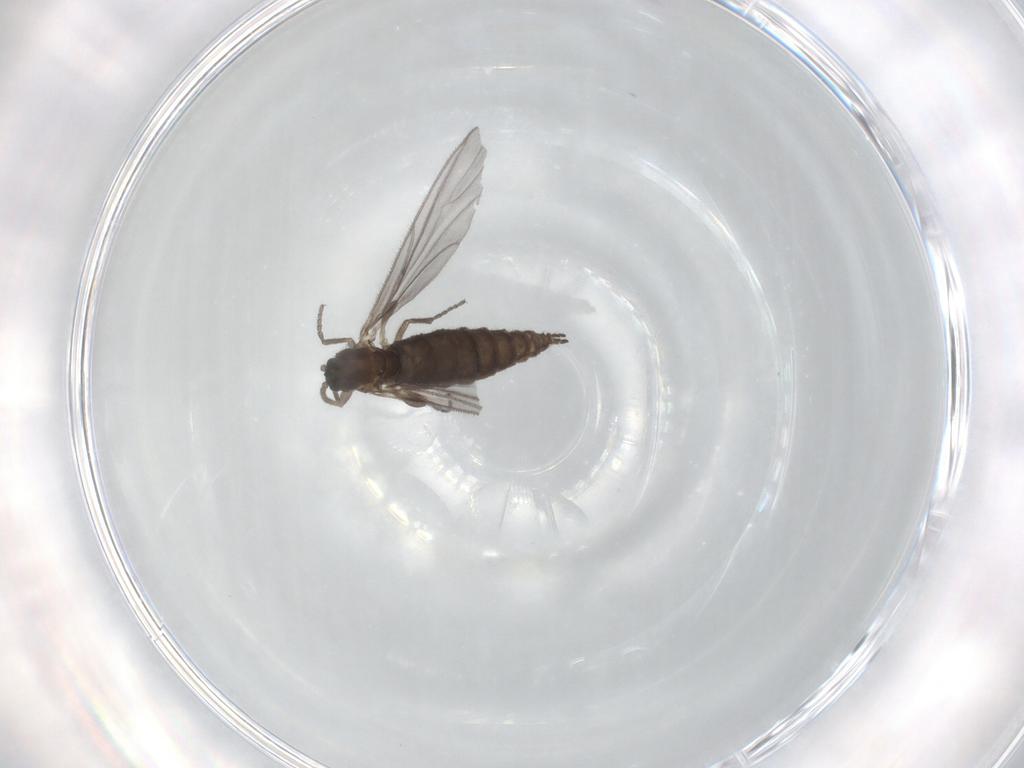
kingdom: Animalia
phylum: Arthropoda
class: Insecta
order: Diptera
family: Sciaridae
